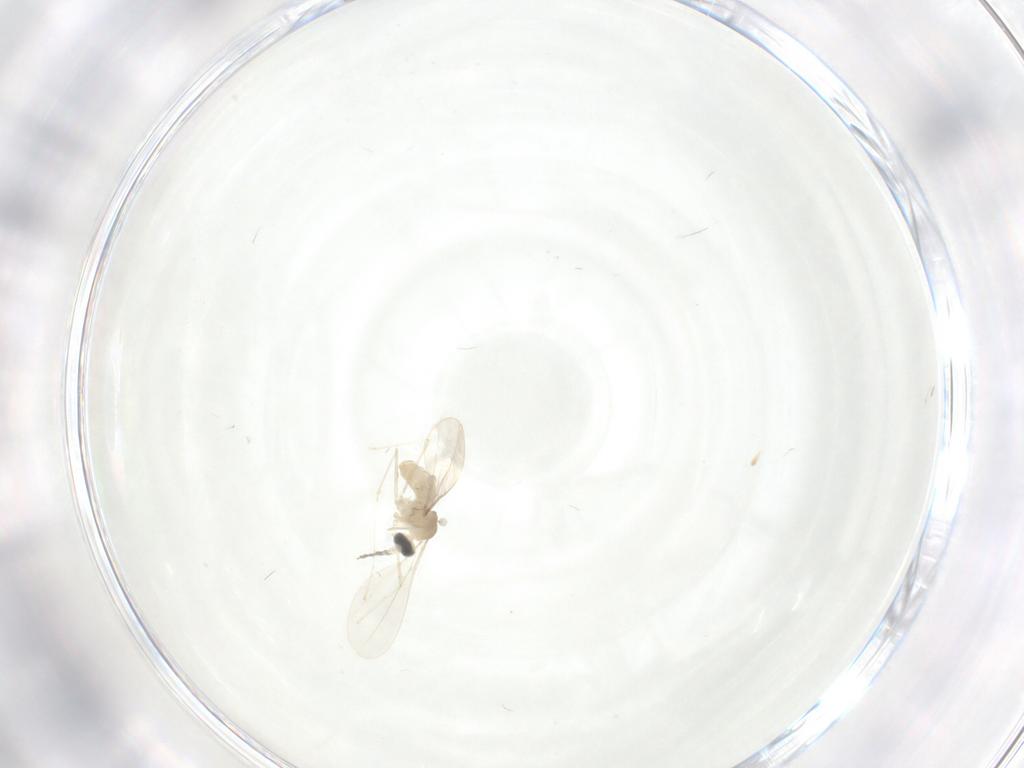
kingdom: Animalia
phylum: Arthropoda
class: Insecta
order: Diptera
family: Cecidomyiidae
